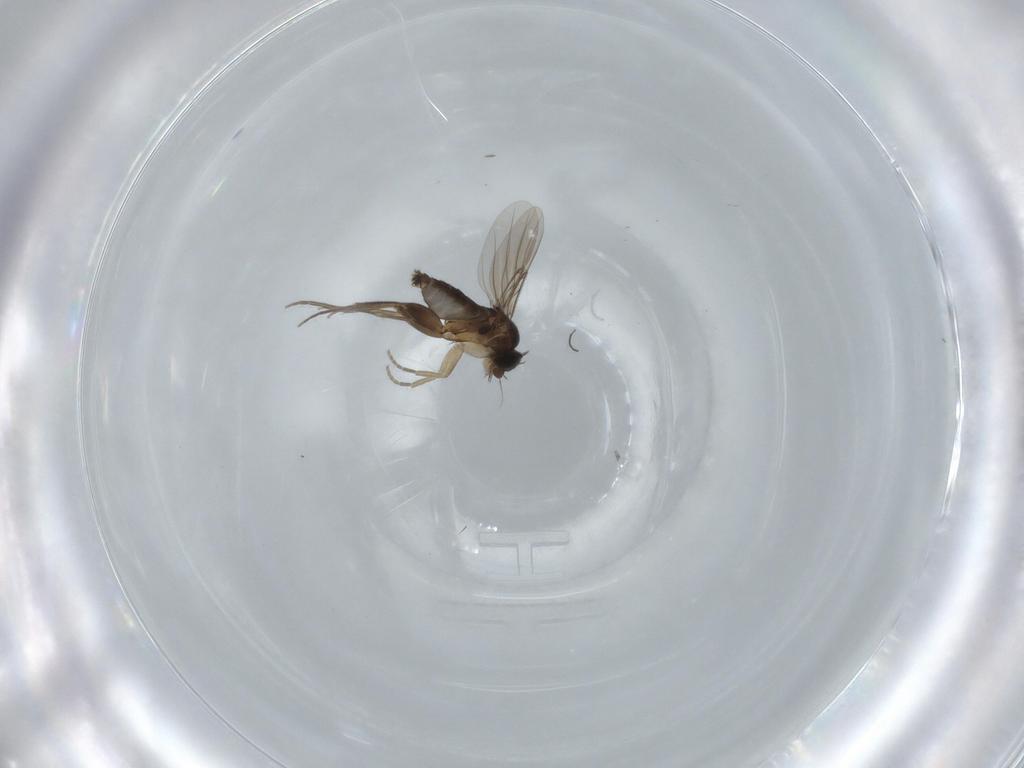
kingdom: Animalia
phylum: Arthropoda
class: Insecta
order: Diptera
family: Phoridae
